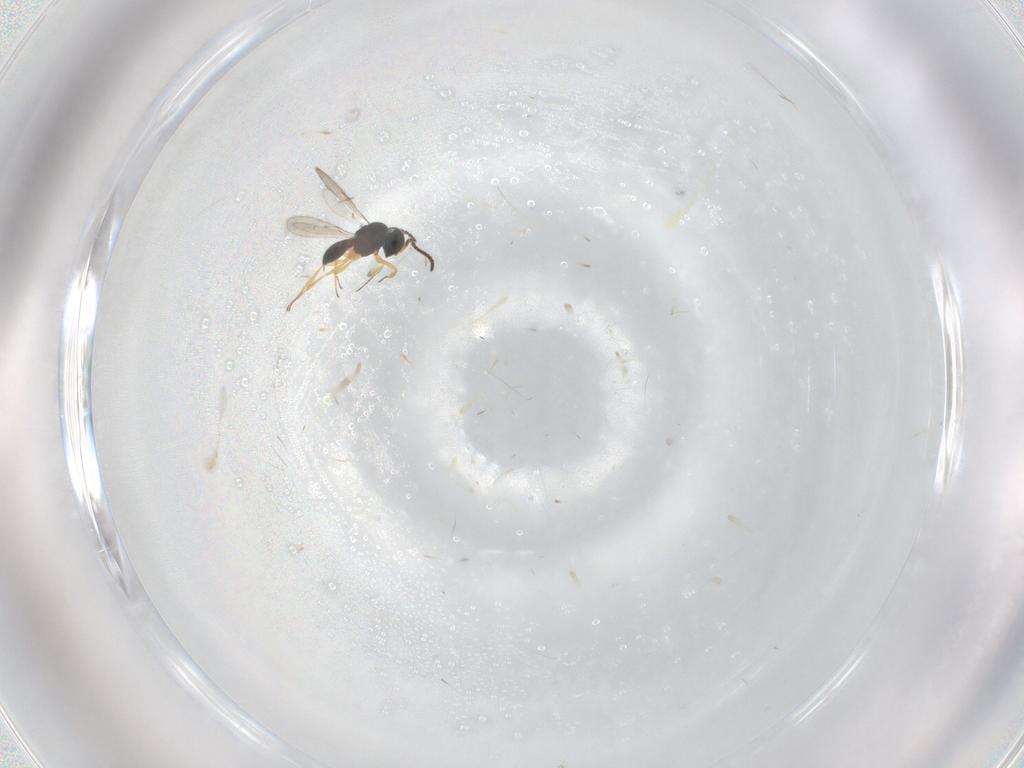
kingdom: Animalia
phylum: Arthropoda
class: Insecta
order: Hymenoptera
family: Scelionidae
